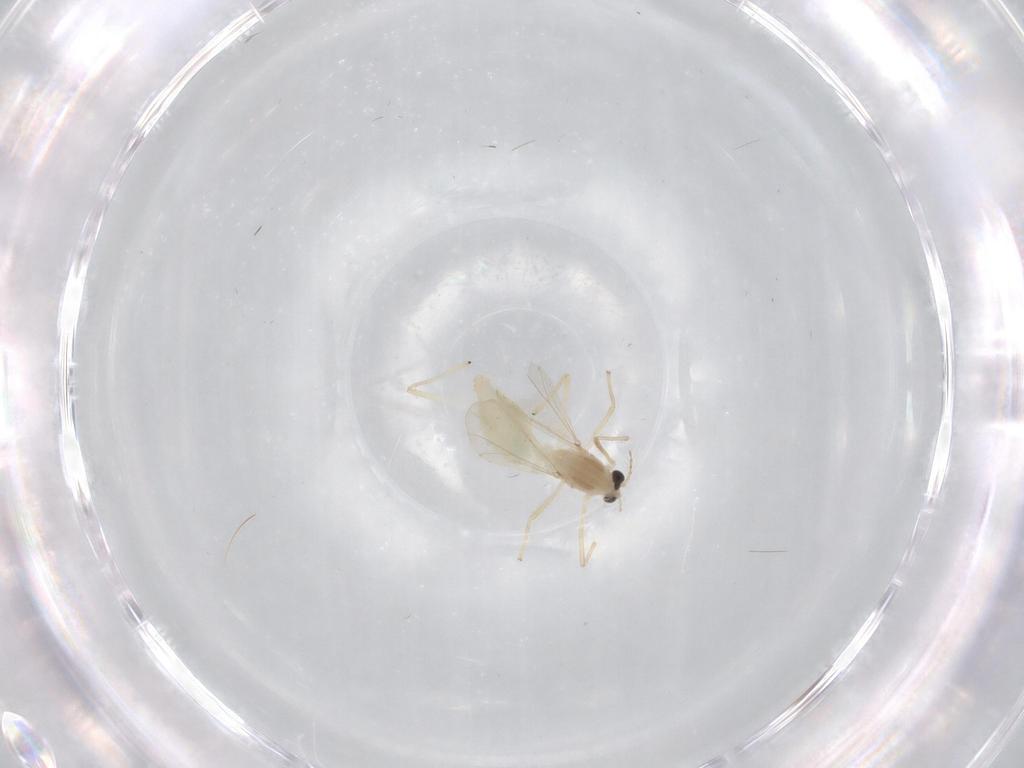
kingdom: Animalia
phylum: Arthropoda
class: Insecta
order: Diptera
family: Chironomidae
